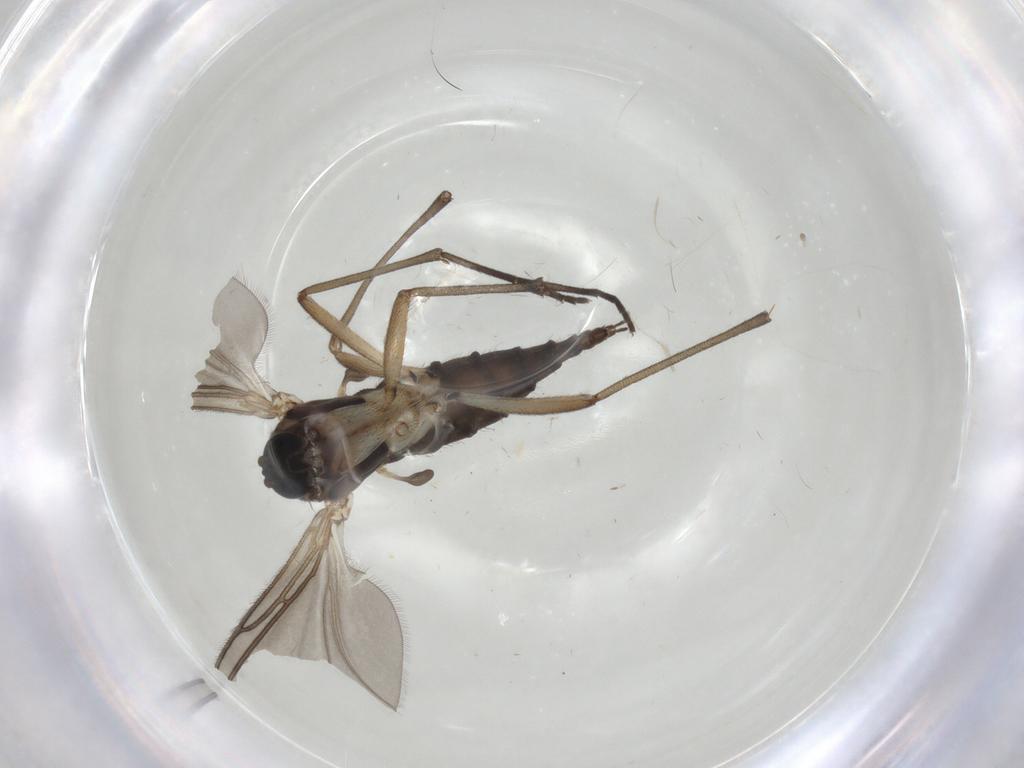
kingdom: Animalia
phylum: Arthropoda
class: Insecta
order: Diptera
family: Sciaridae
